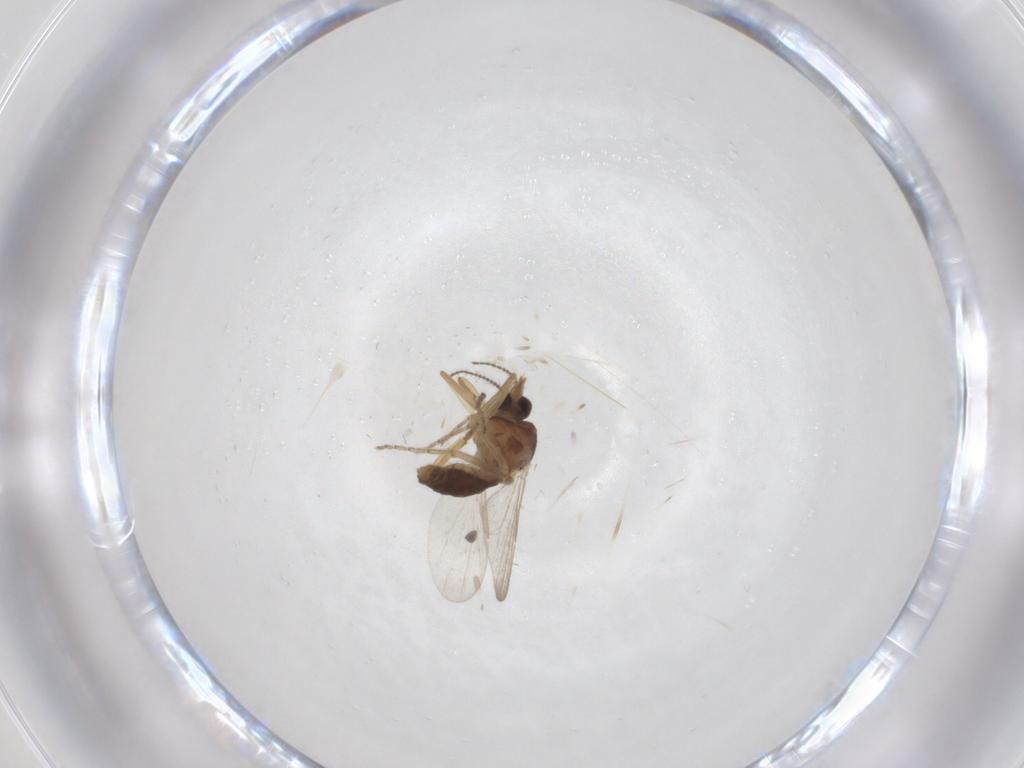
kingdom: Animalia
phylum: Arthropoda
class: Insecta
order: Diptera
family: Ceratopogonidae
